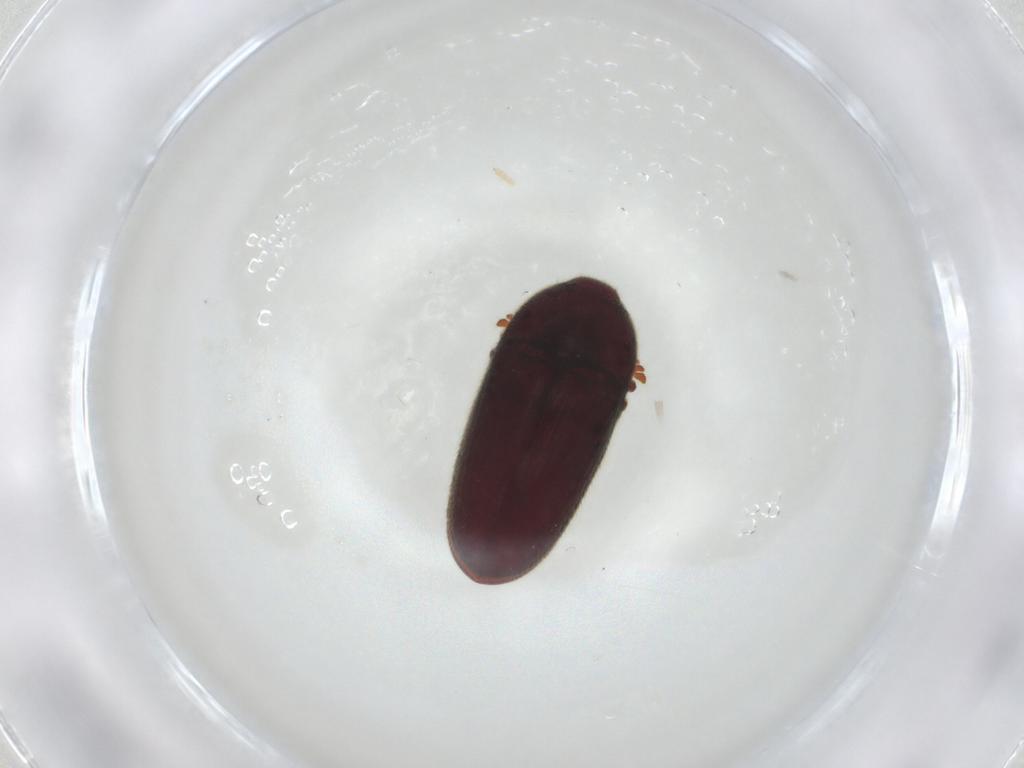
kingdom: Animalia
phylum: Arthropoda
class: Insecta
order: Coleoptera
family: Throscidae
